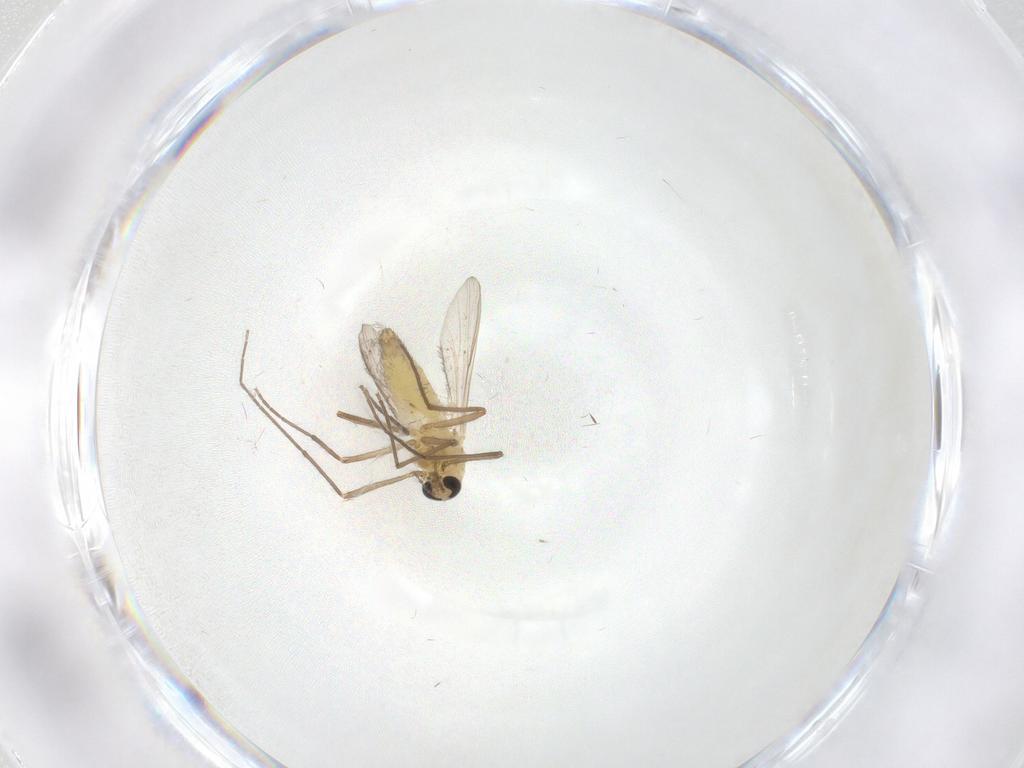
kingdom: Animalia
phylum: Arthropoda
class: Insecta
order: Diptera
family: Chironomidae
